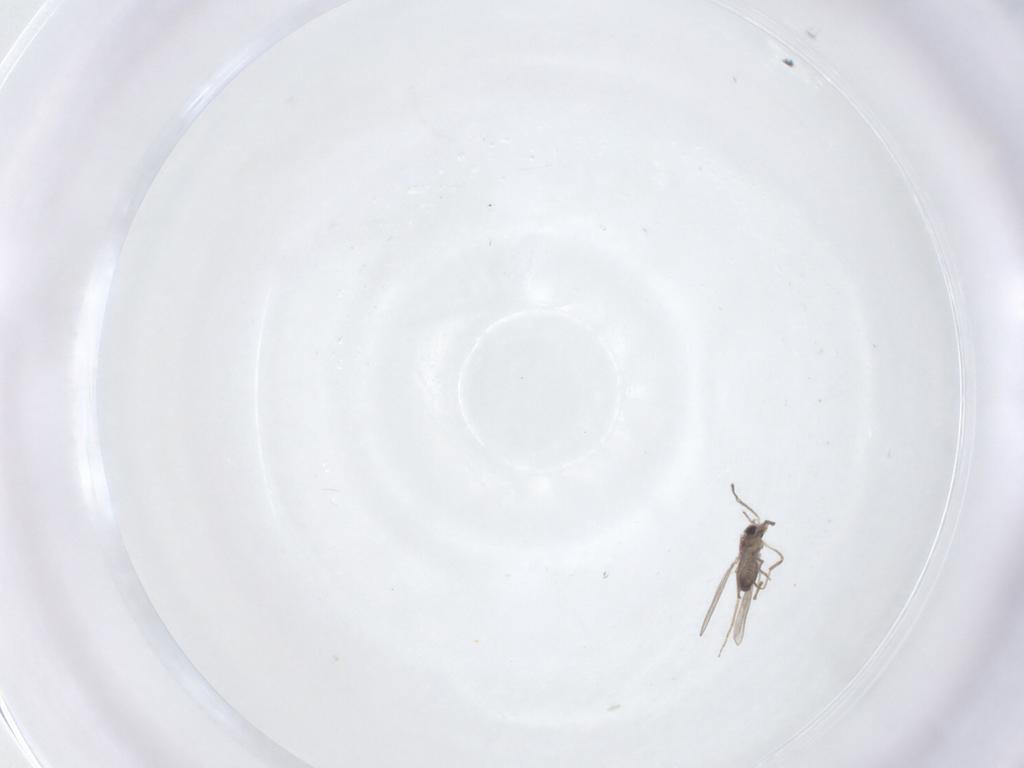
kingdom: Animalia
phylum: Arthropoda
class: Insecta
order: Diptera
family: Chironomidae
